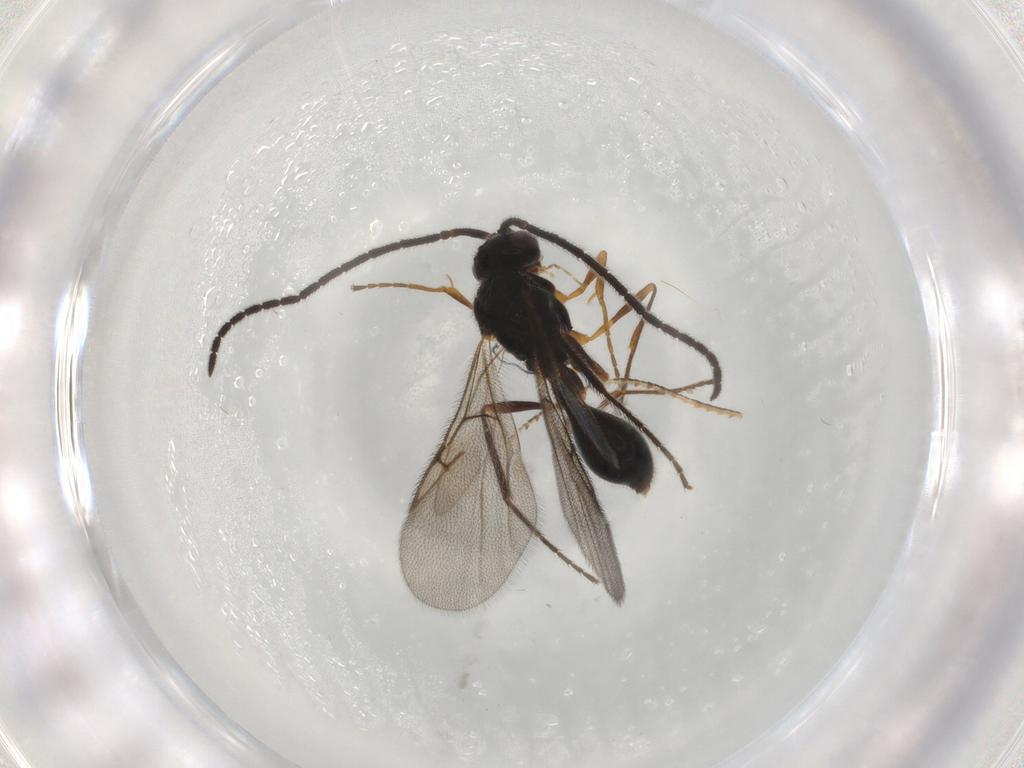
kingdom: Animalia
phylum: Arthropoda
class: Insecta
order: Hymenoptera
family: Diapriidae
